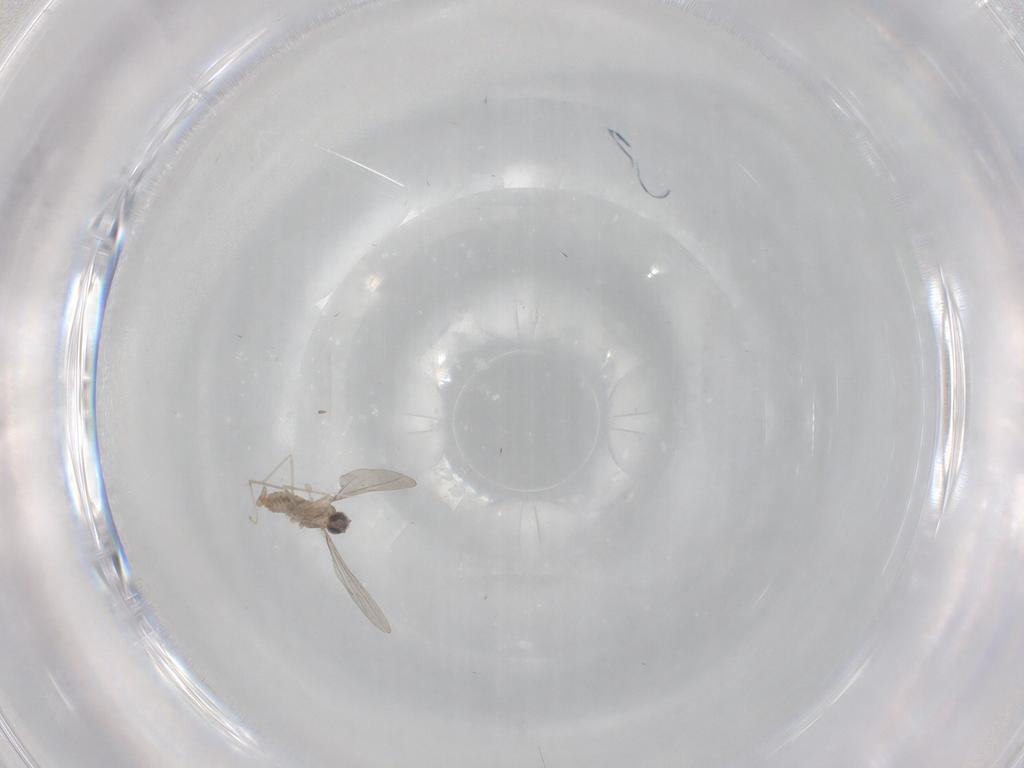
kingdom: Animalia
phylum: Arthropoda
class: Insecta
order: Diptera
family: Cecidomyiidae
